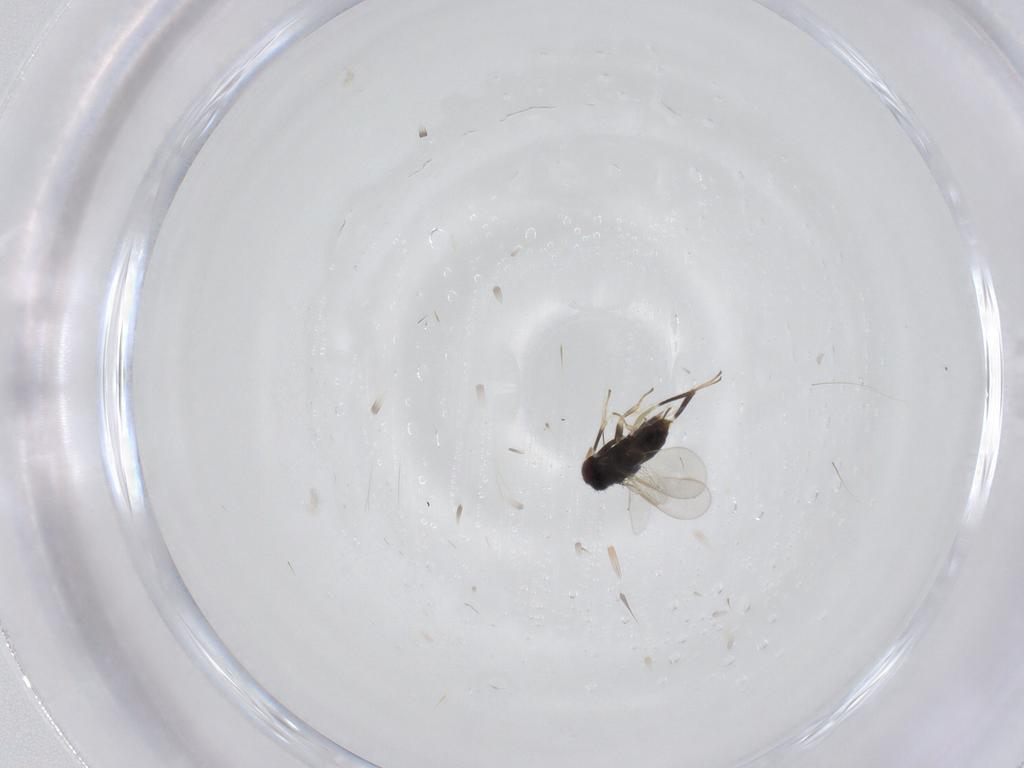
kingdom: Animalia
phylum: Arthropoda
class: Insecta
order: Hymenoptera
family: Aphelinidae
